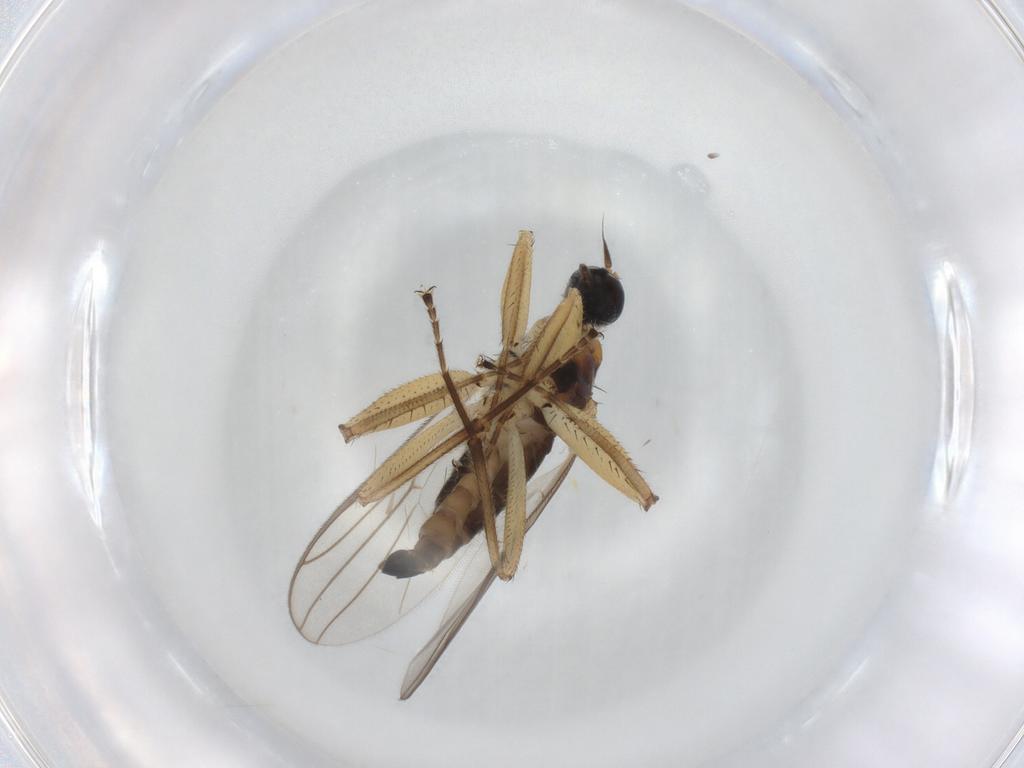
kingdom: Animalia
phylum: Arthropoda
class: Insecta
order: Diptera
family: Hybotidae
